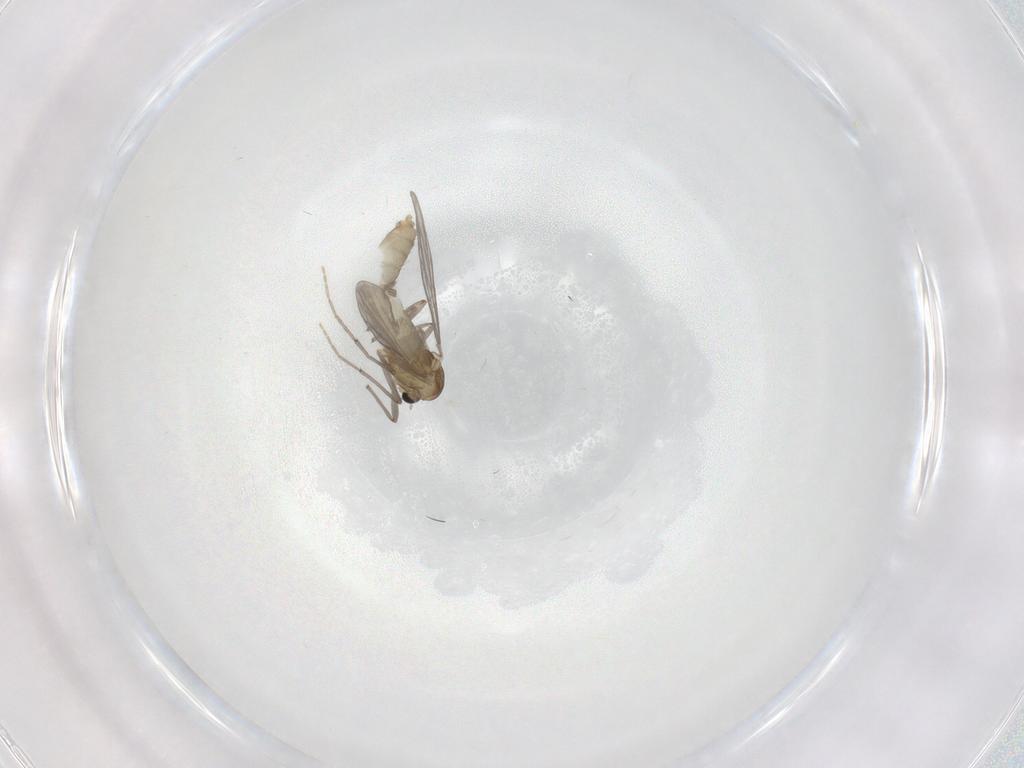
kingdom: Animalia
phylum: Arthropoda
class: Insecta
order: Diptera
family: Chironomidae
